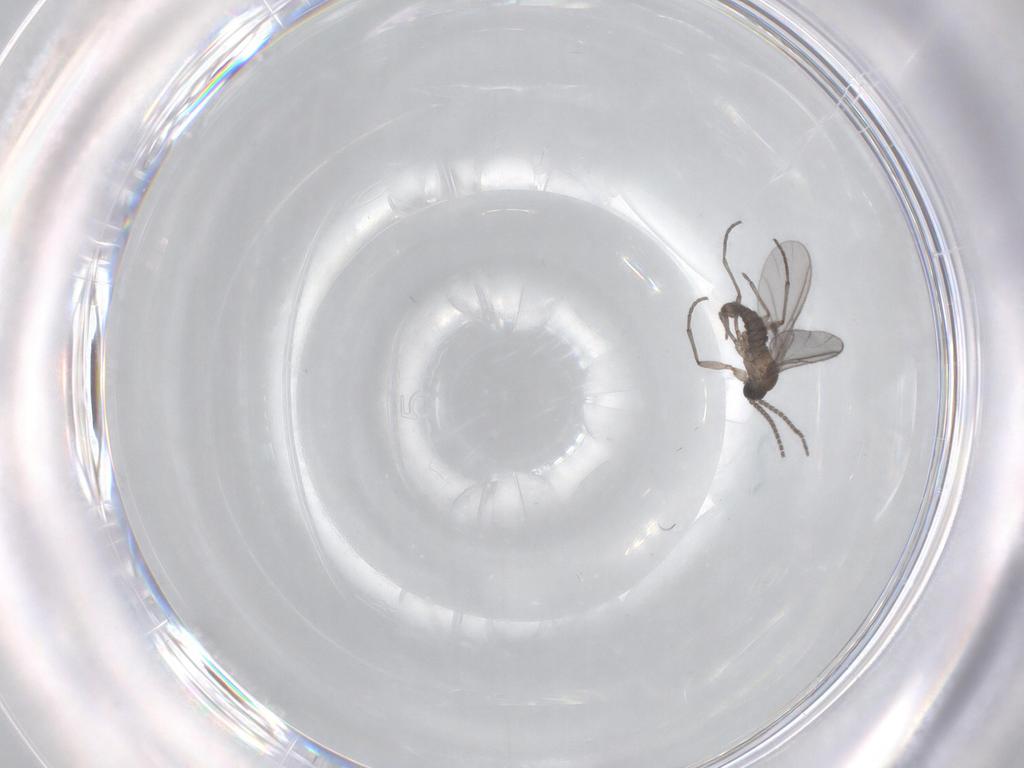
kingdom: Animalia
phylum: Arthropoda
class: Insecta
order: Diptera
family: Sciaridae
